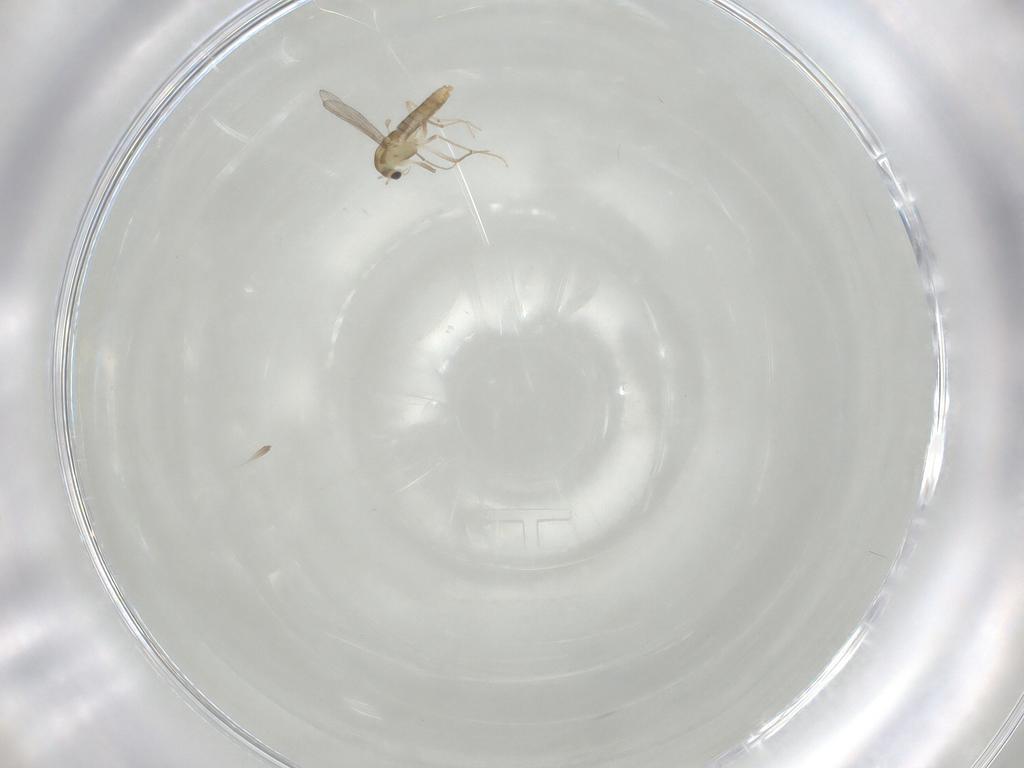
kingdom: Animalia
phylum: Arthropoda
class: Insecta
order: Diptera
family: Chironomidae
